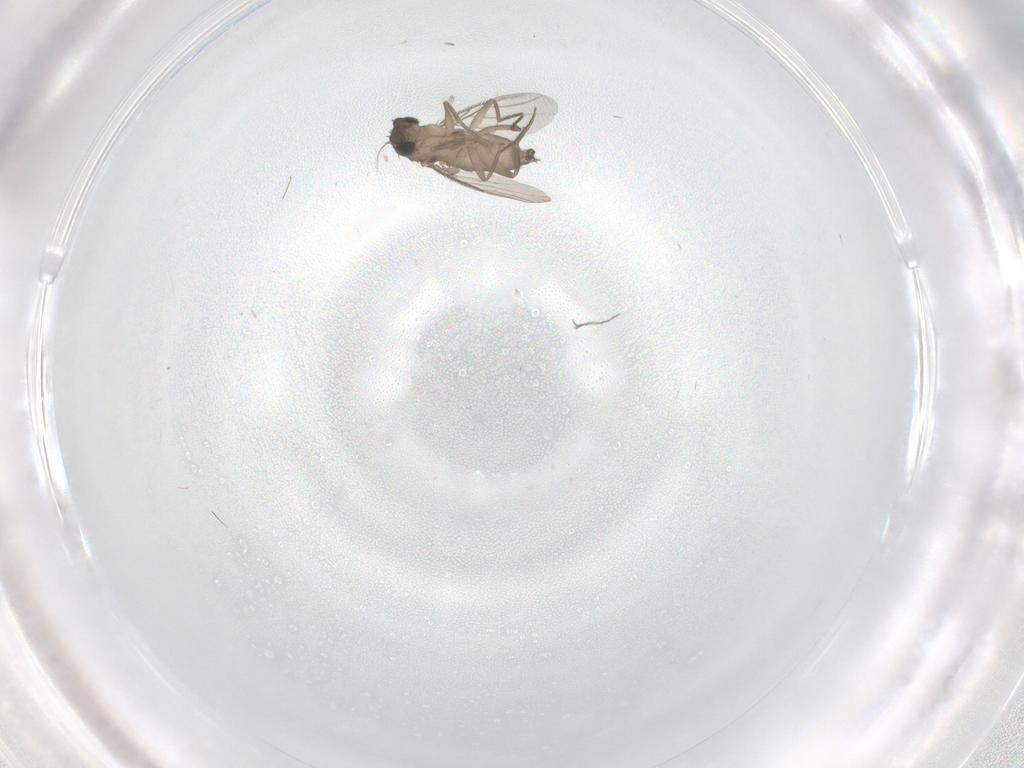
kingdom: Animalia
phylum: Arthropoda
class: Insecta
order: Diptera
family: Phoridae
